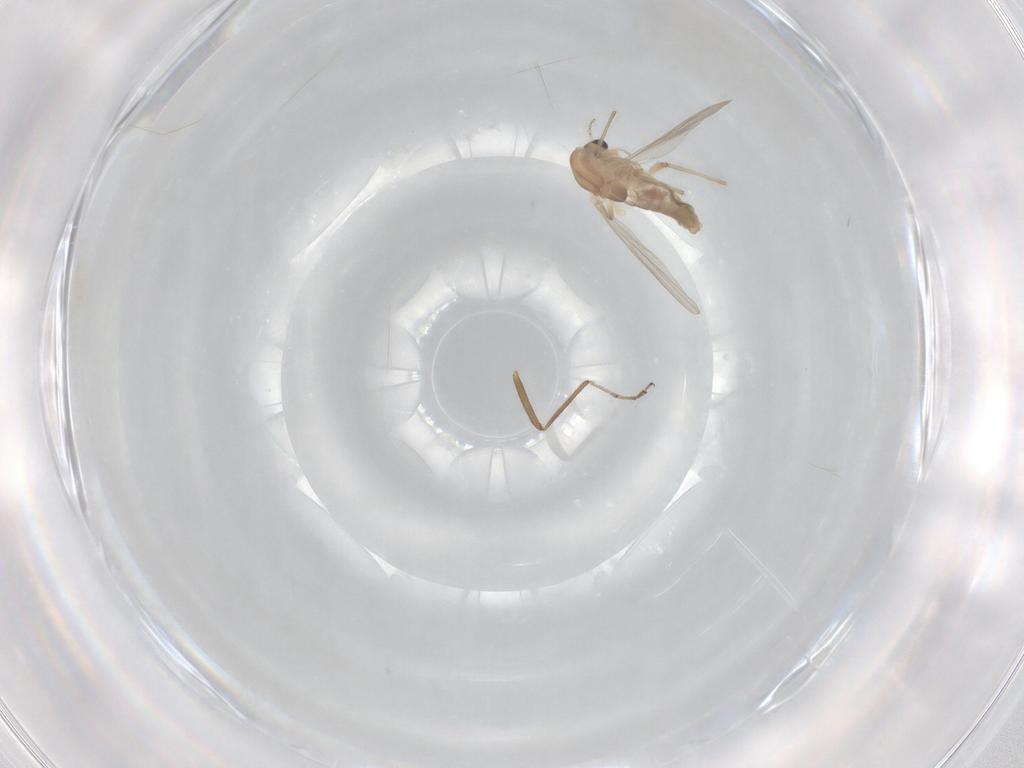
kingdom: Animalia
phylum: Arthropoda
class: Insecta
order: Diptera
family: Chironomidae
